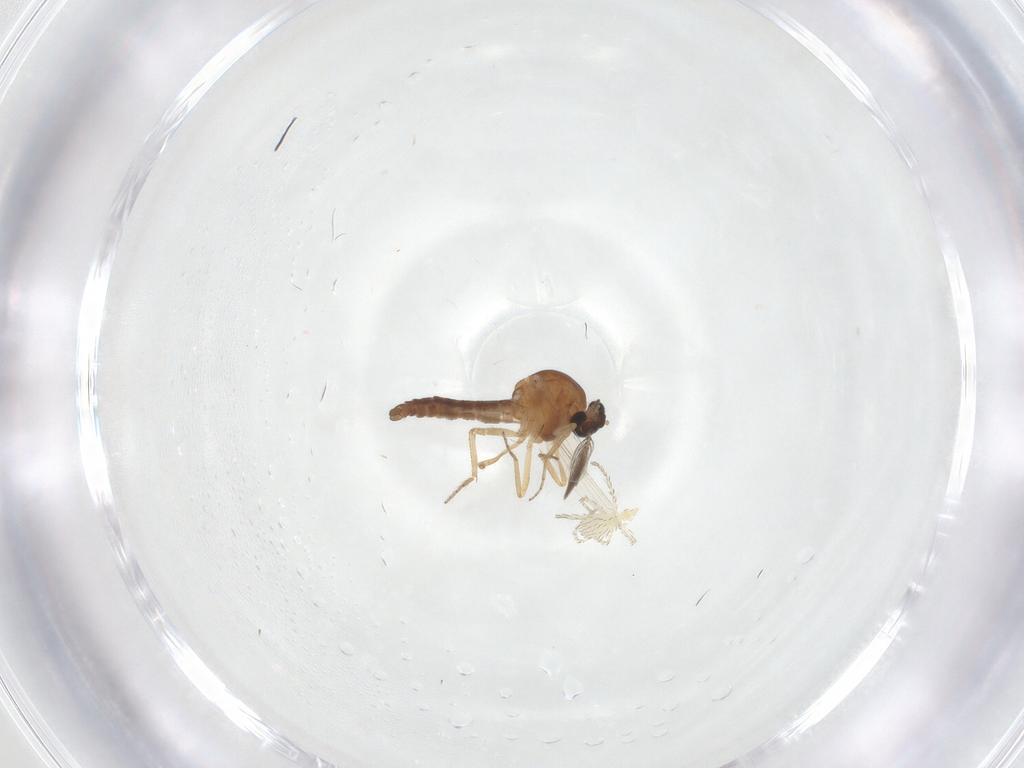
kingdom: Animalia
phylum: Arthropoda
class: Insecta
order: Diptera
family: Ceratopogonidae
